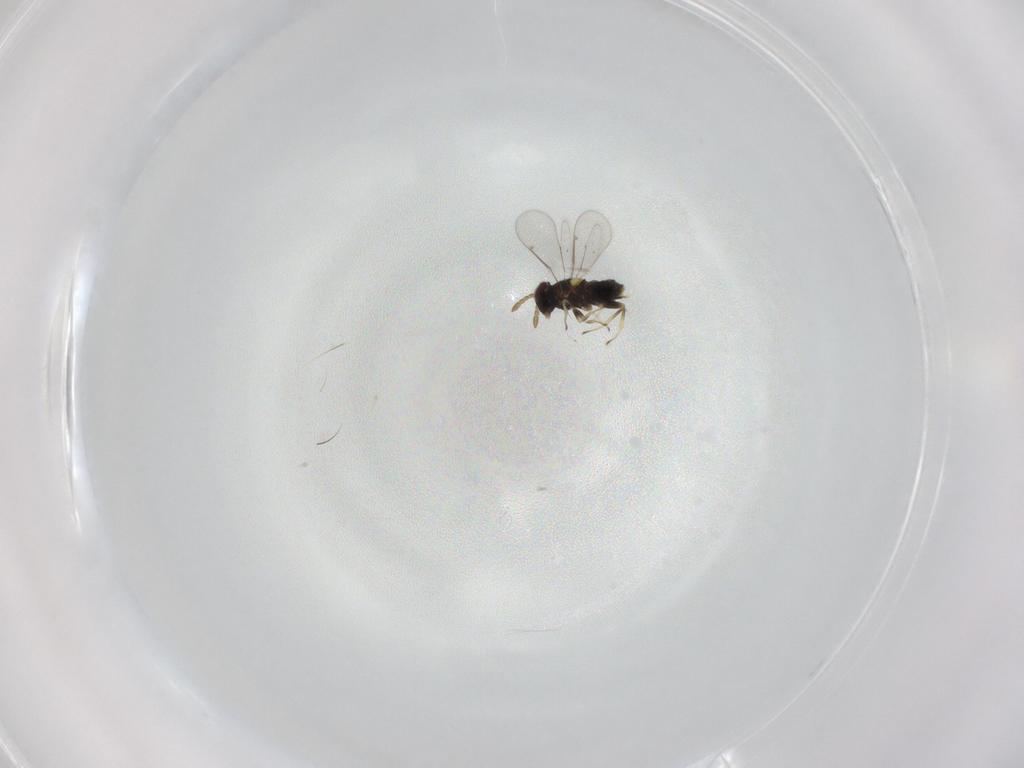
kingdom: Animalia
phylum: Arthropoda
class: Insecta
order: Hymenoptera
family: Aphelinidae
